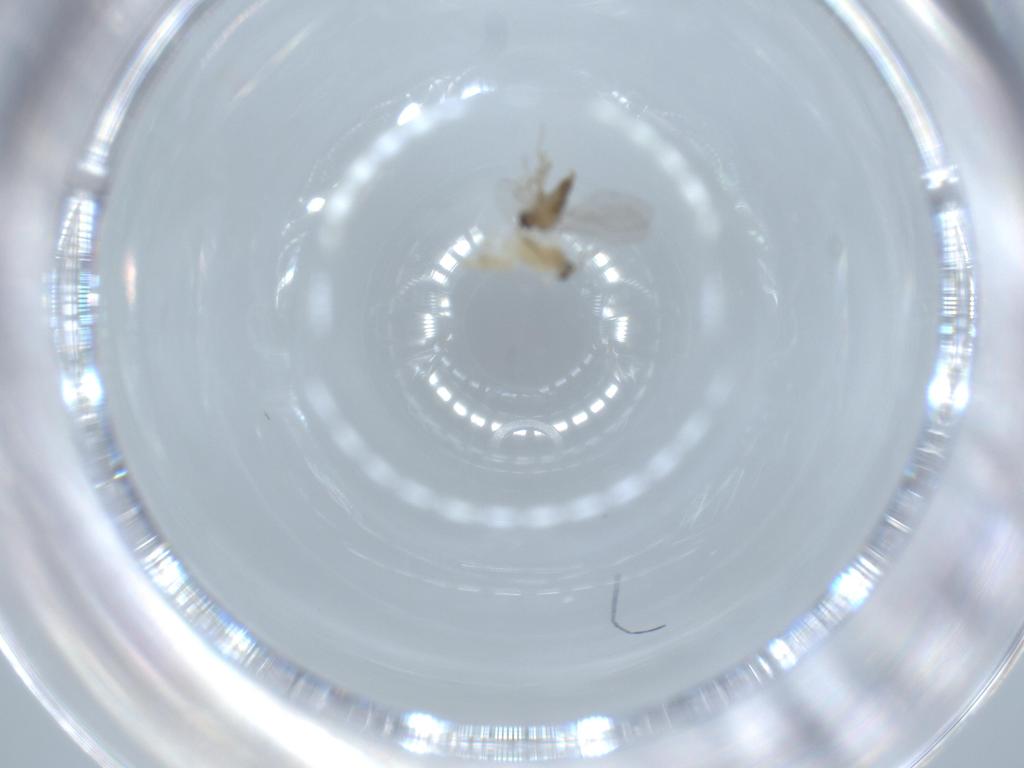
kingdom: Animalia
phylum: Arthropoda
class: Insecta
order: Diptera
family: Cecidomyiidae
